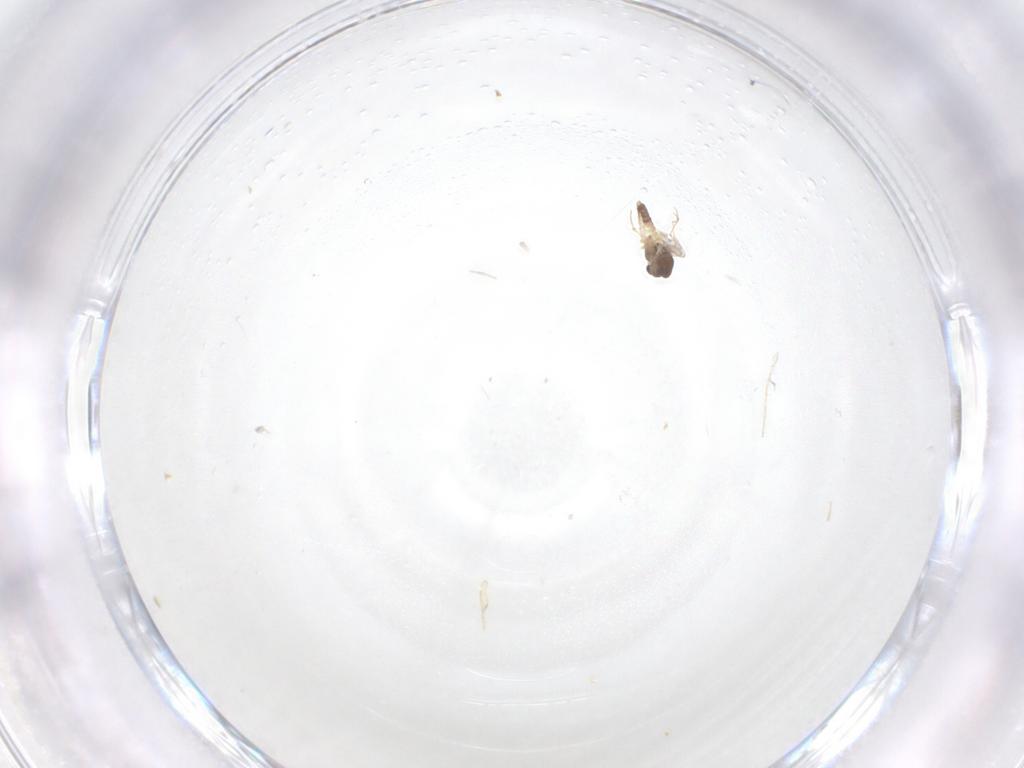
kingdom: Animalia
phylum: Arthropoda
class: Insecta
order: Diptera
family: Chironomidae
